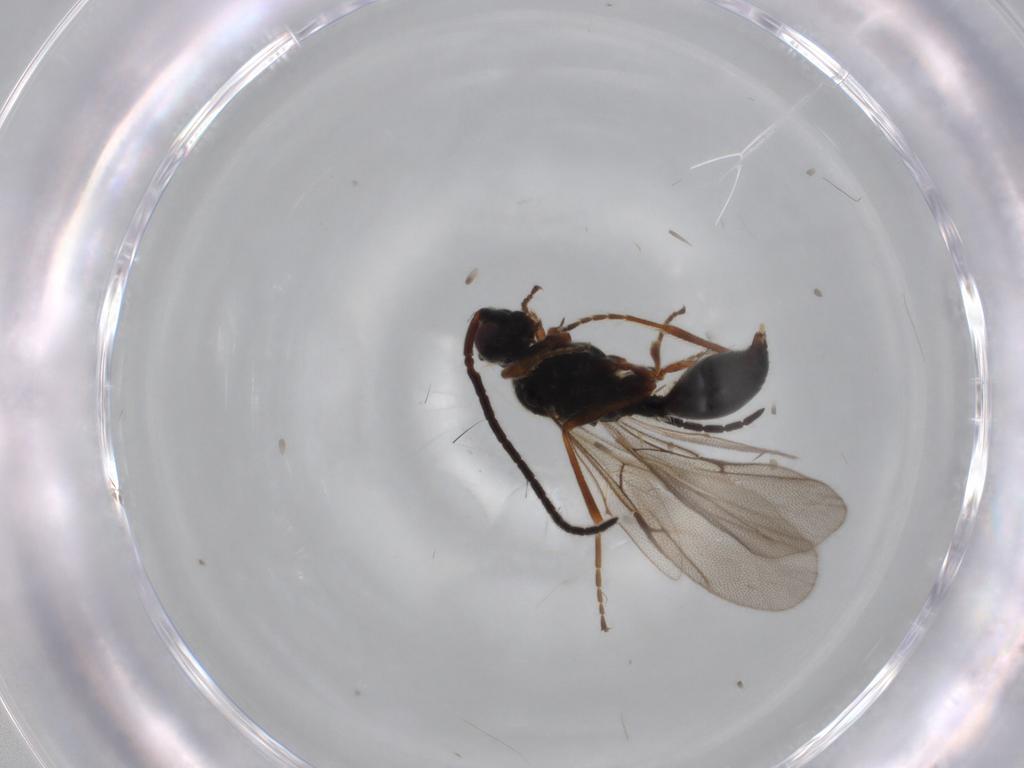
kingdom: Animalia
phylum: Arthropoda
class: Insecta
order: Hymenoptera
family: Diapriidae
